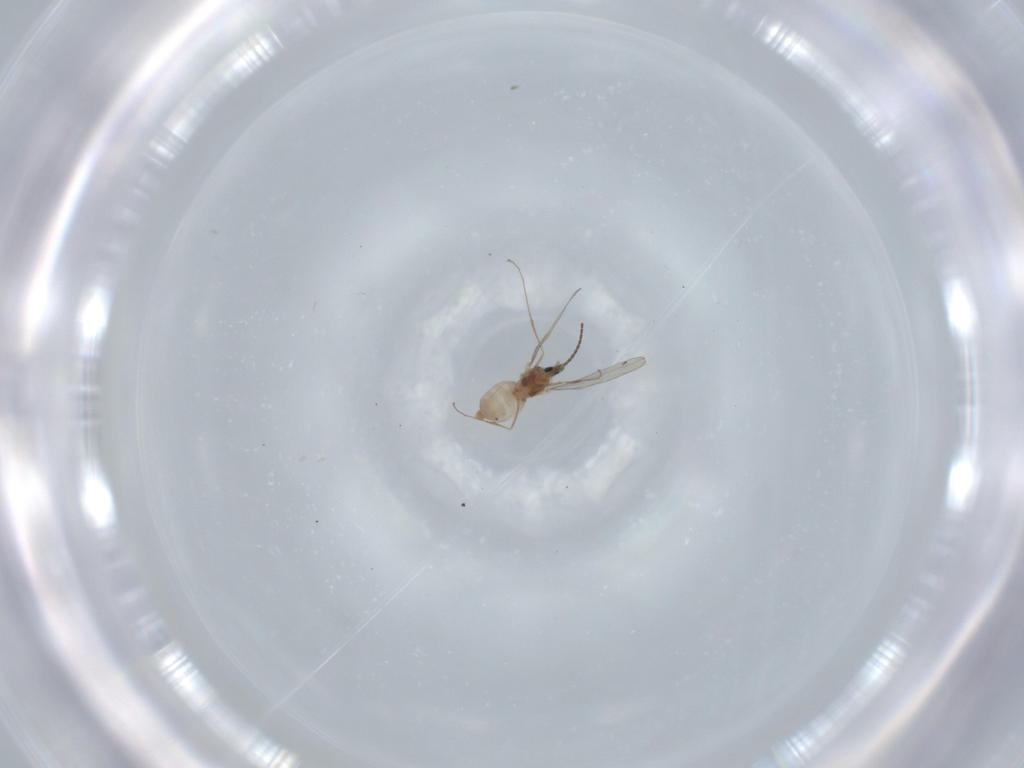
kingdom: Animalia
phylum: Arthropoda
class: Insecta
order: Diptera
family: Cecidomyiidae
